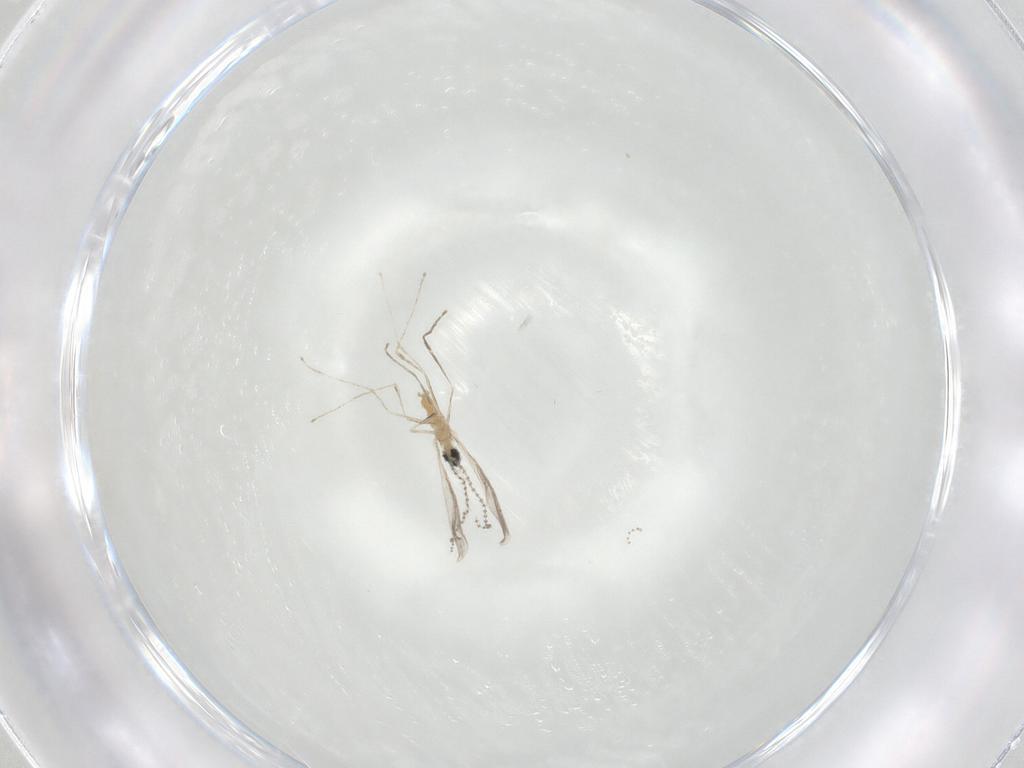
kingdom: Animalia
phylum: Arthropoda
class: Insecta
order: Diptera
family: Cecidomyiidae
